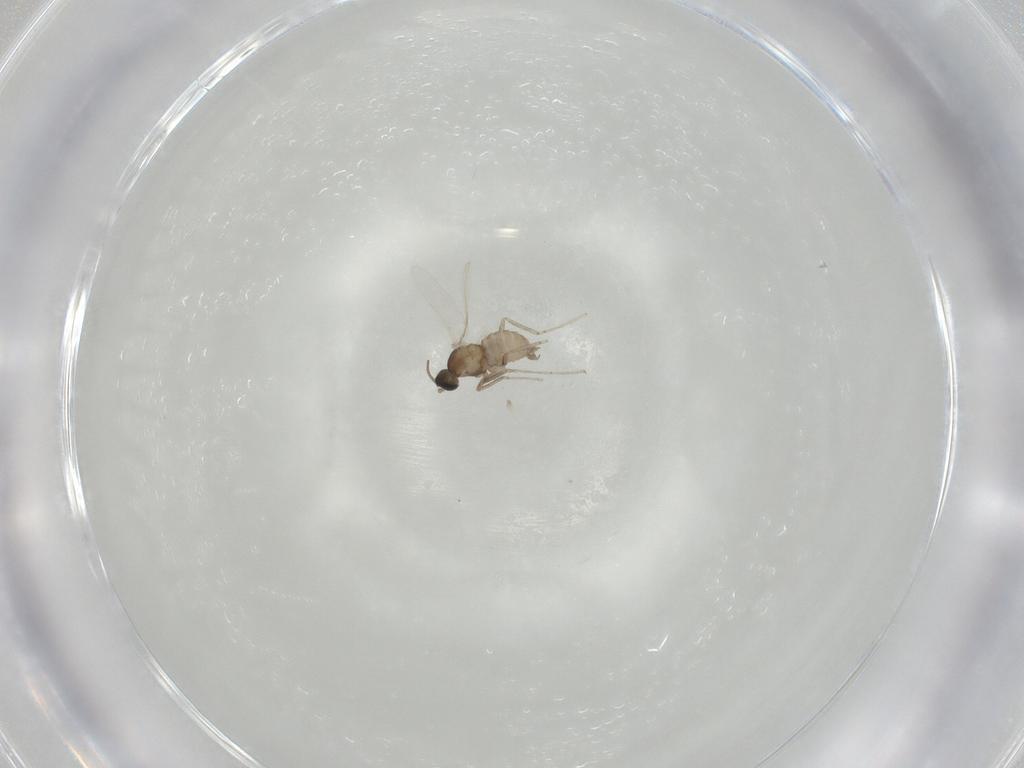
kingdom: Animalia
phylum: Arthropoda
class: Insecta
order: Diptera
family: Cecidomyiidae
